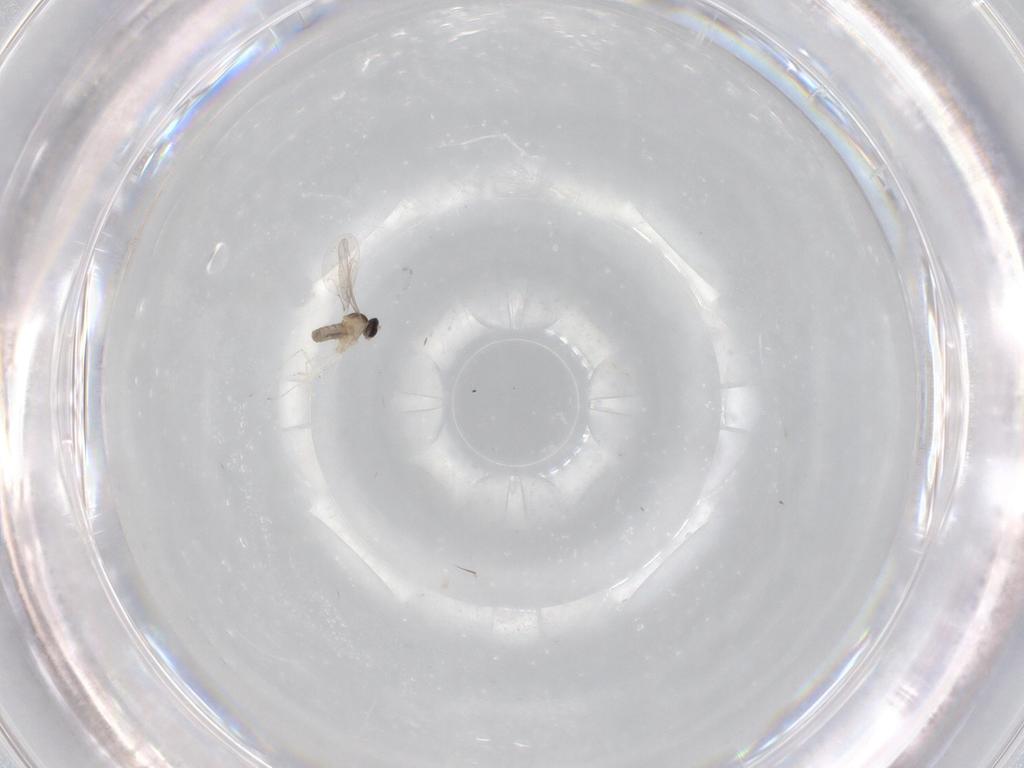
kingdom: Animalia
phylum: Arthropoda
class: Insecta
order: Diptera
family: Cecidomyiidae
